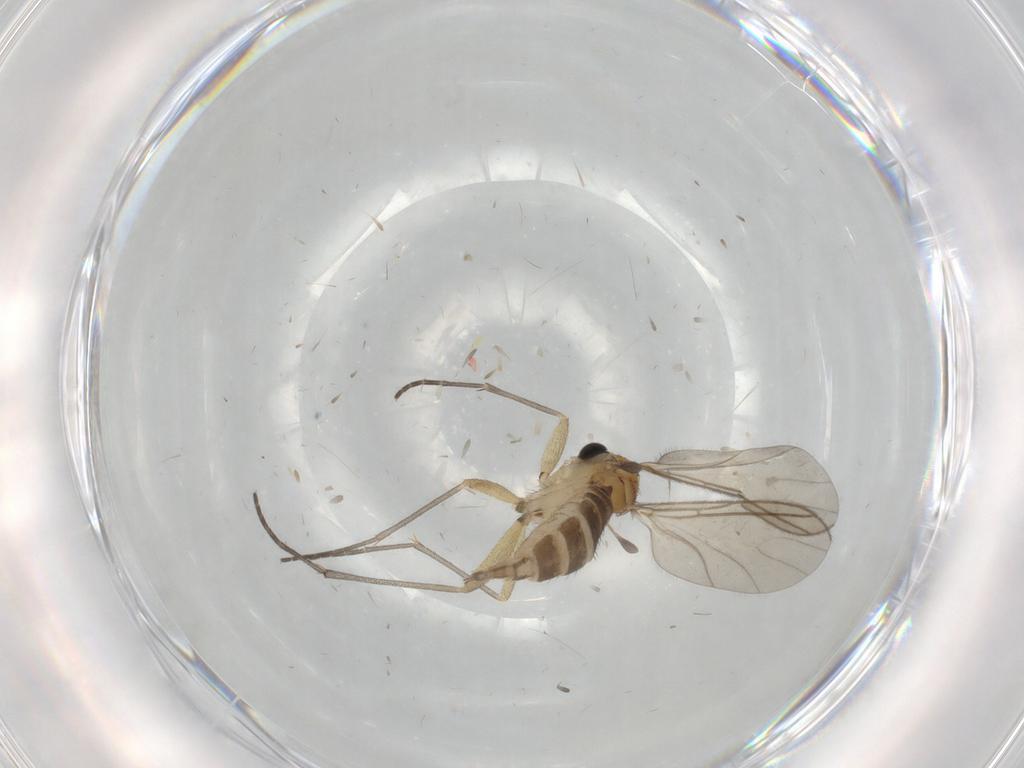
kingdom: Animalia
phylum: Arthropoda
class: Insecta
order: Diptera
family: Sciaridae
